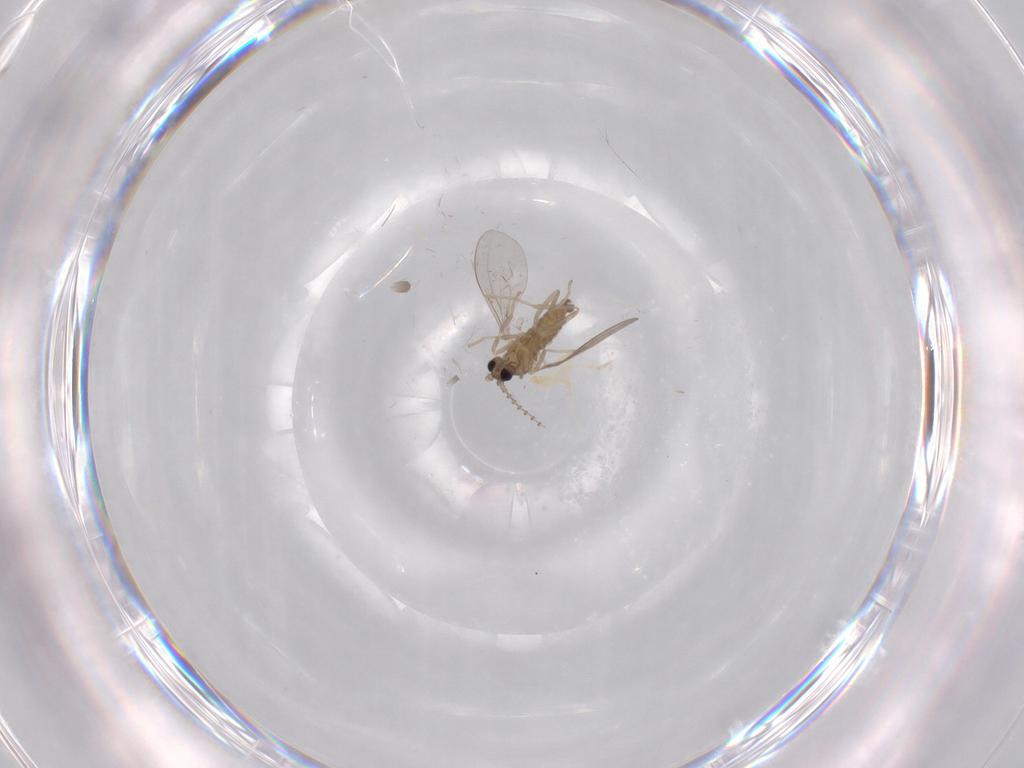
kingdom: Animalia
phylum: Arthropoda
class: Insecta
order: Diptera
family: Cecidomyiidae
